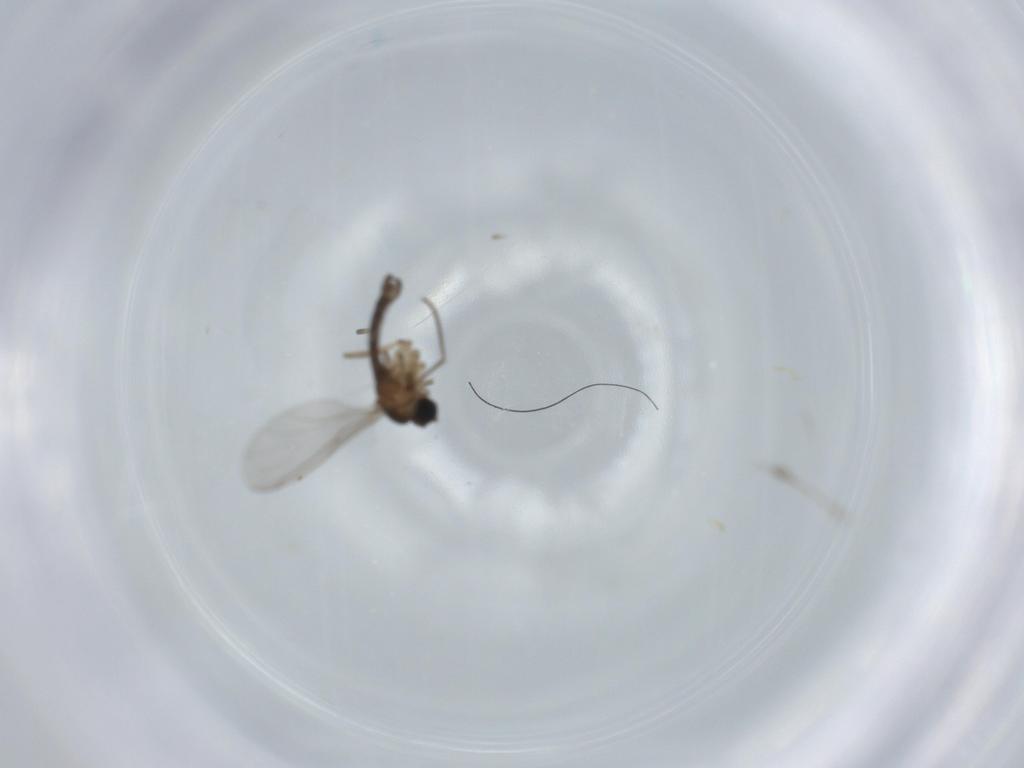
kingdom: Animalia
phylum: Arthropoda
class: Insecta
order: Diptera
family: Sciaridae
